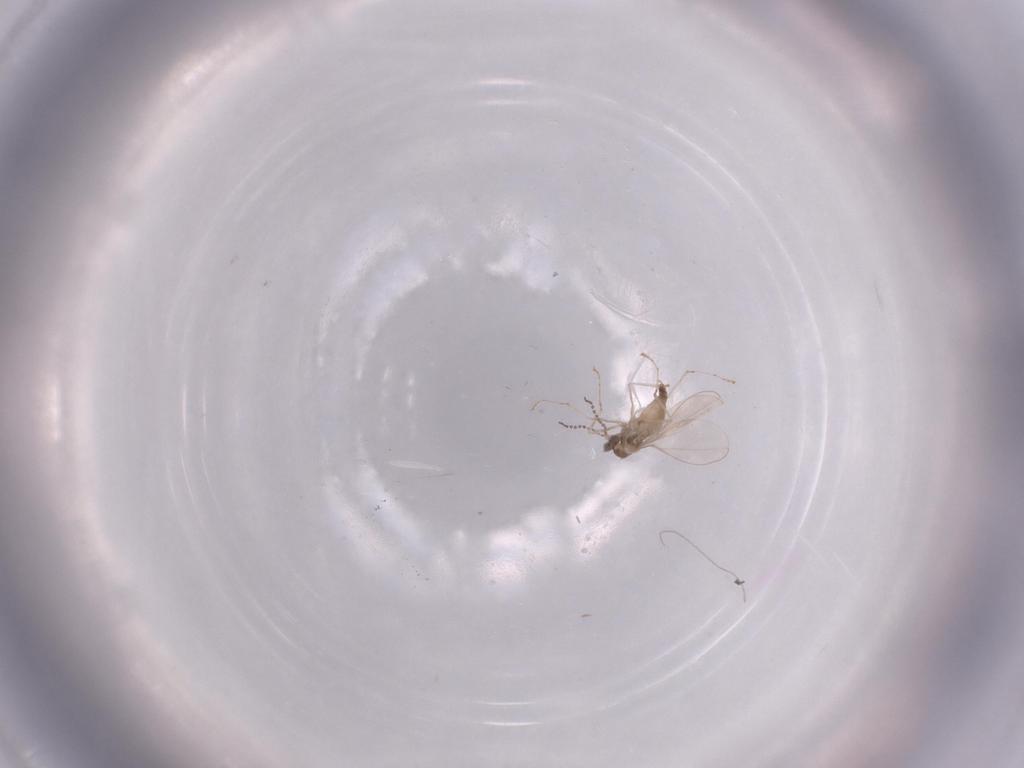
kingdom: Animalia
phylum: Arthropoda
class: Insecta
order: Diptera
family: Cecidomyiidae
